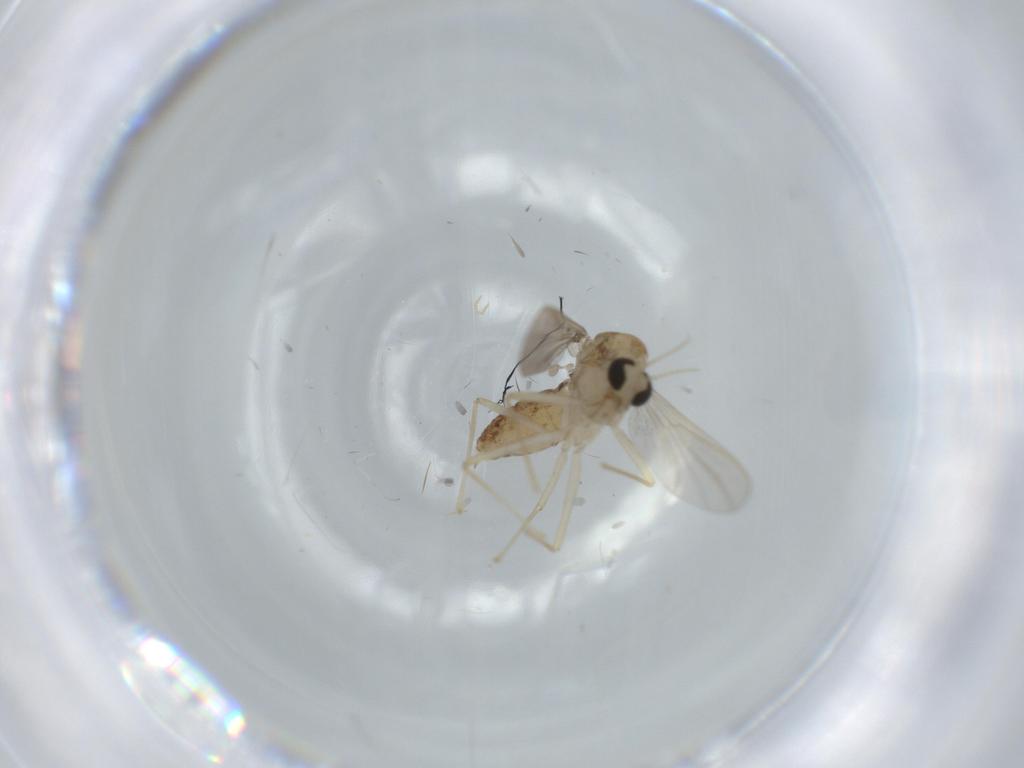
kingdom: Animalia
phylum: Arthropoda
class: Insecta
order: Diptera
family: Chironomidae
